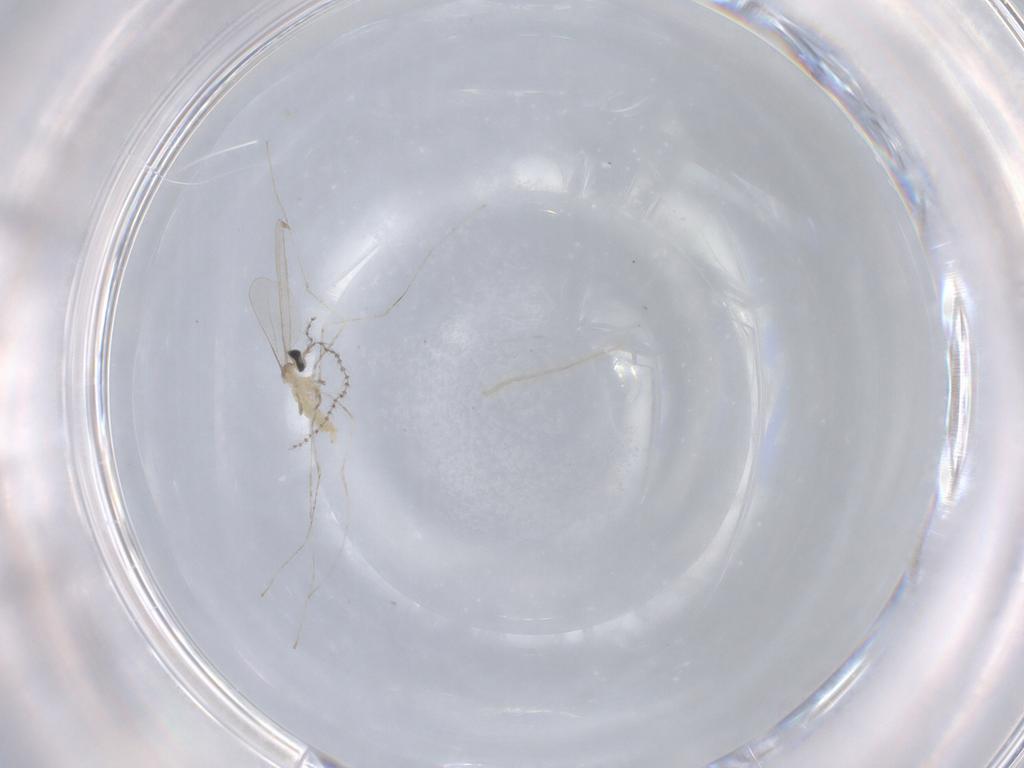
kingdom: Animalia
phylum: Arthropoda
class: Insecta
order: Diptera
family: Cecidomyiidae
